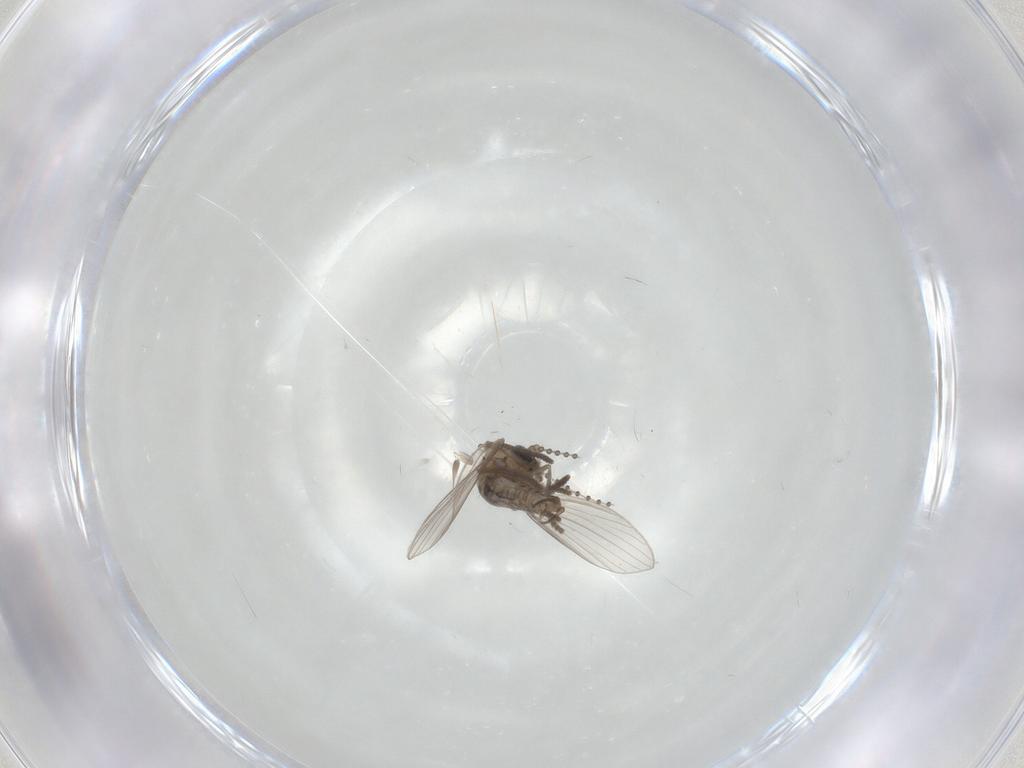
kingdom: Animalia
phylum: Arthropoda
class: Insecta
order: Diptera
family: Psychodidae
